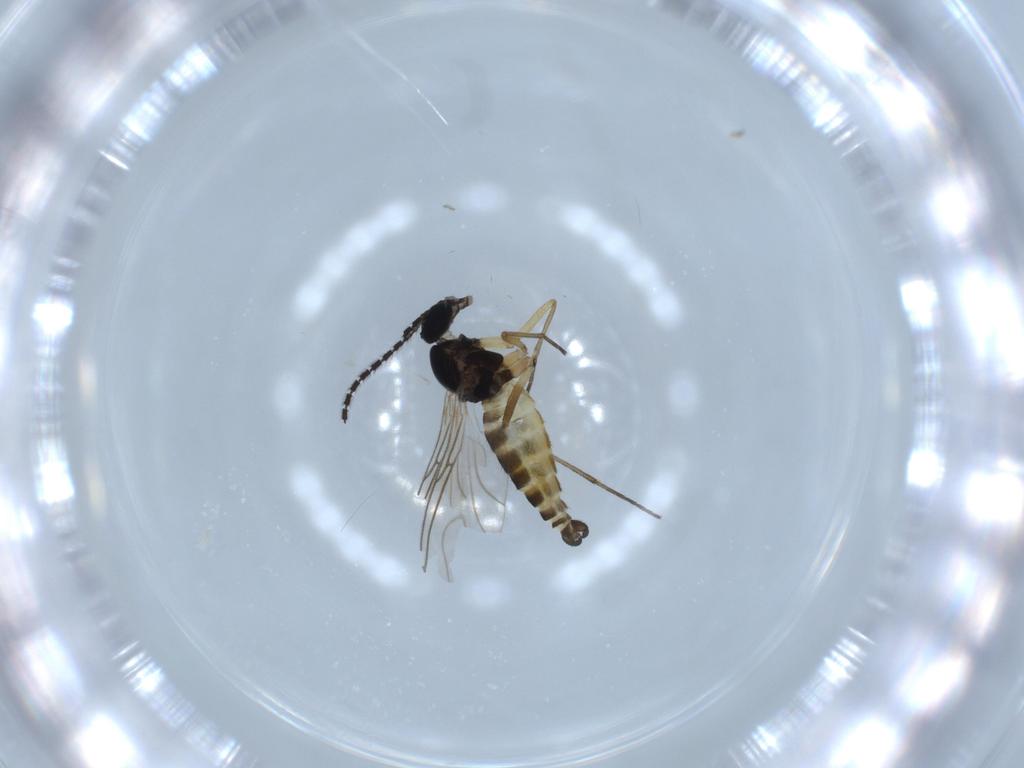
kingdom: Animalia
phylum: Arthropoda
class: Insecta
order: Diptera
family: Sciaridae
